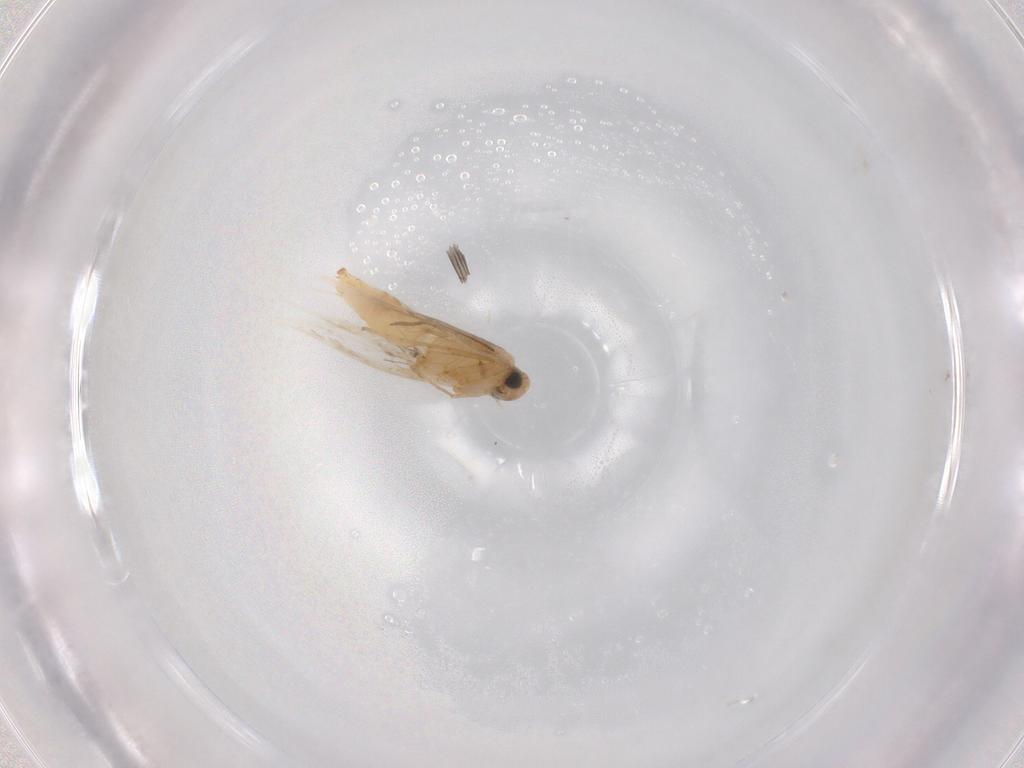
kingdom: Animalia
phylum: Arthropoda
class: Insecta
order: Lepidoptera
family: Tischeriidae
